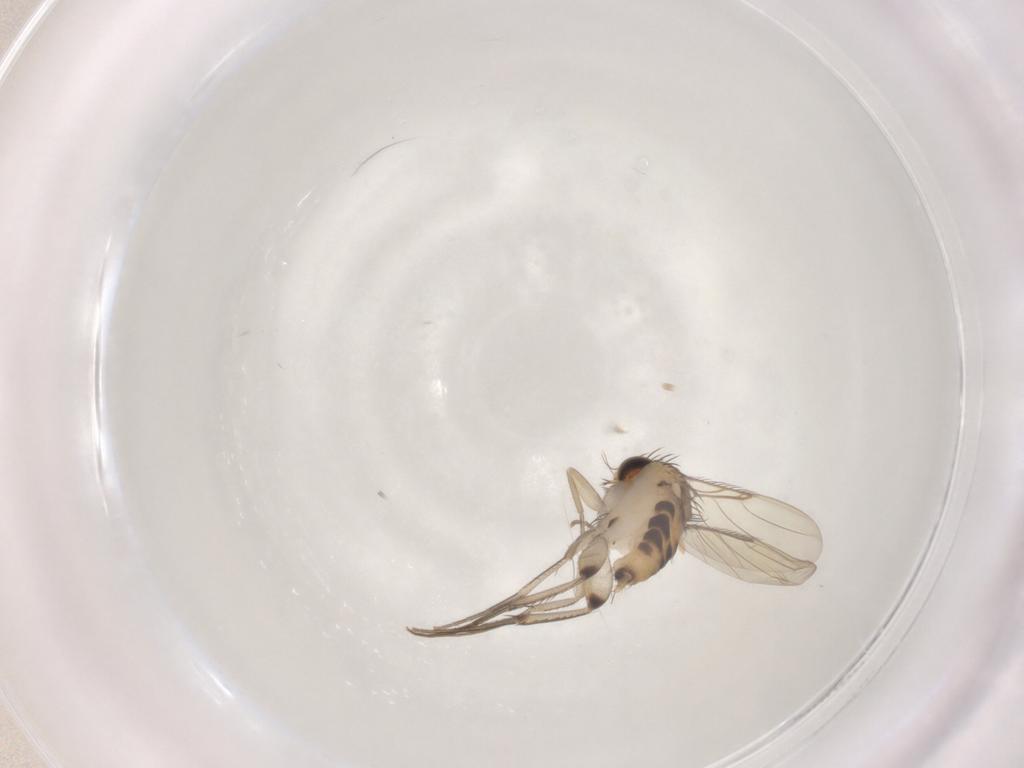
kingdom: Animalia
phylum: Arthropoda
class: Insecta
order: Diptera
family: Phoridae
